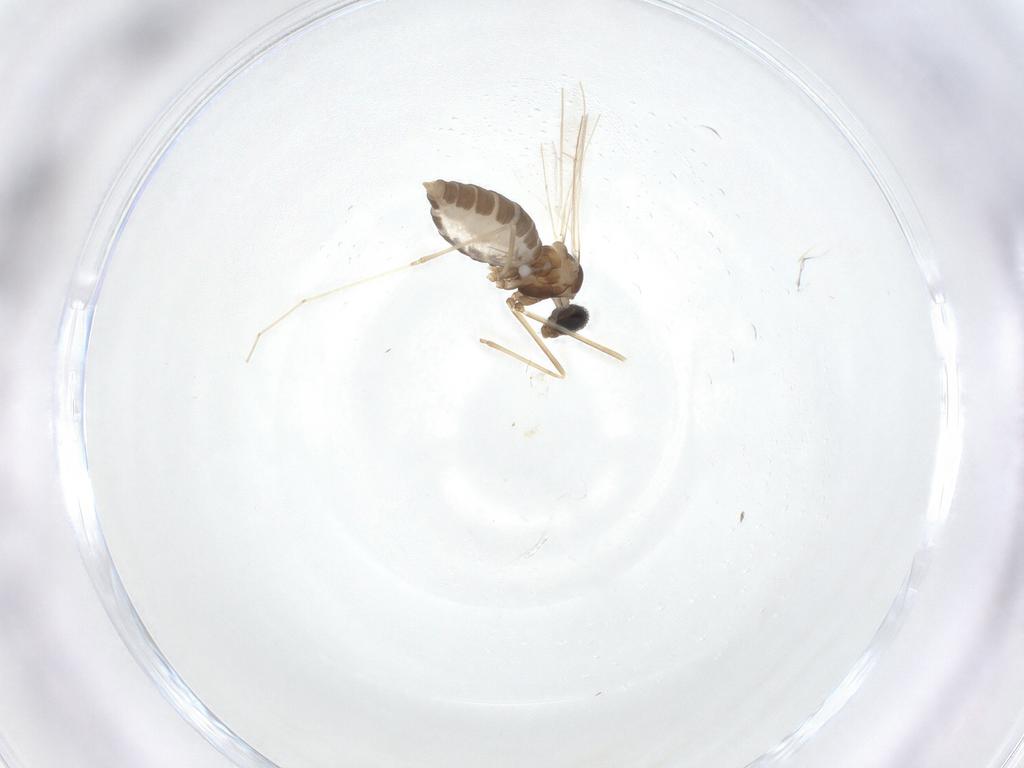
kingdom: Animalia
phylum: Arthropoda
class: Insecta
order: Diptera
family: Cecidomyiidae
